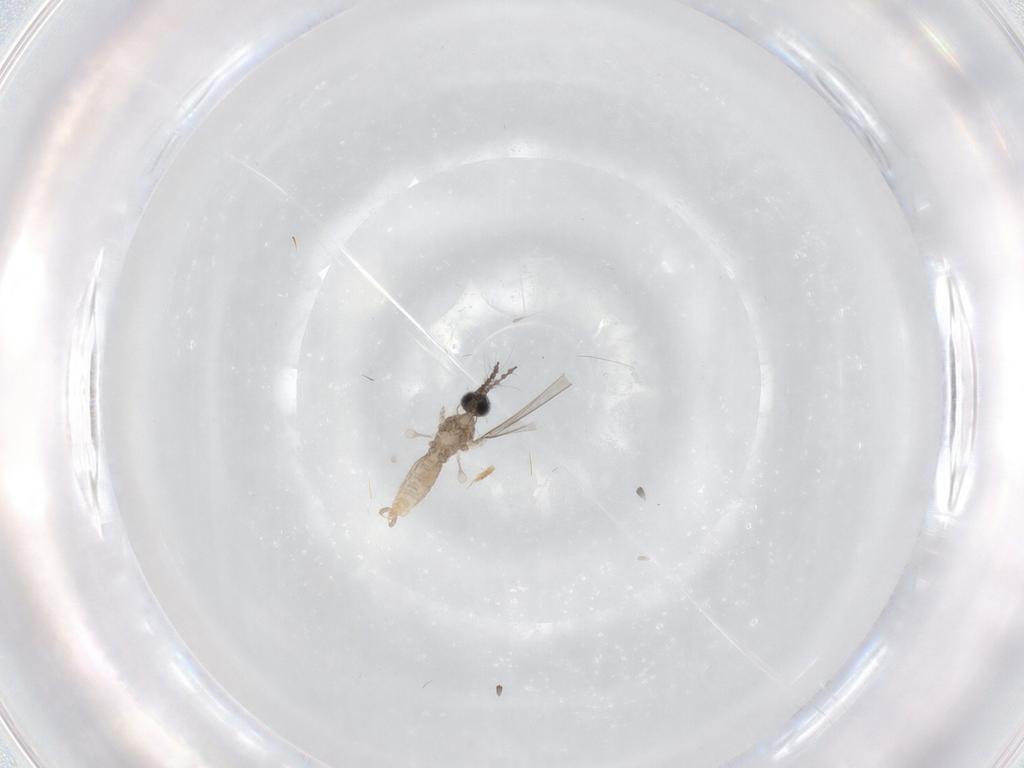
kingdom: Animalia
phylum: Arthropoda
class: Insecta
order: Diptera
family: Cecidomyiidae
